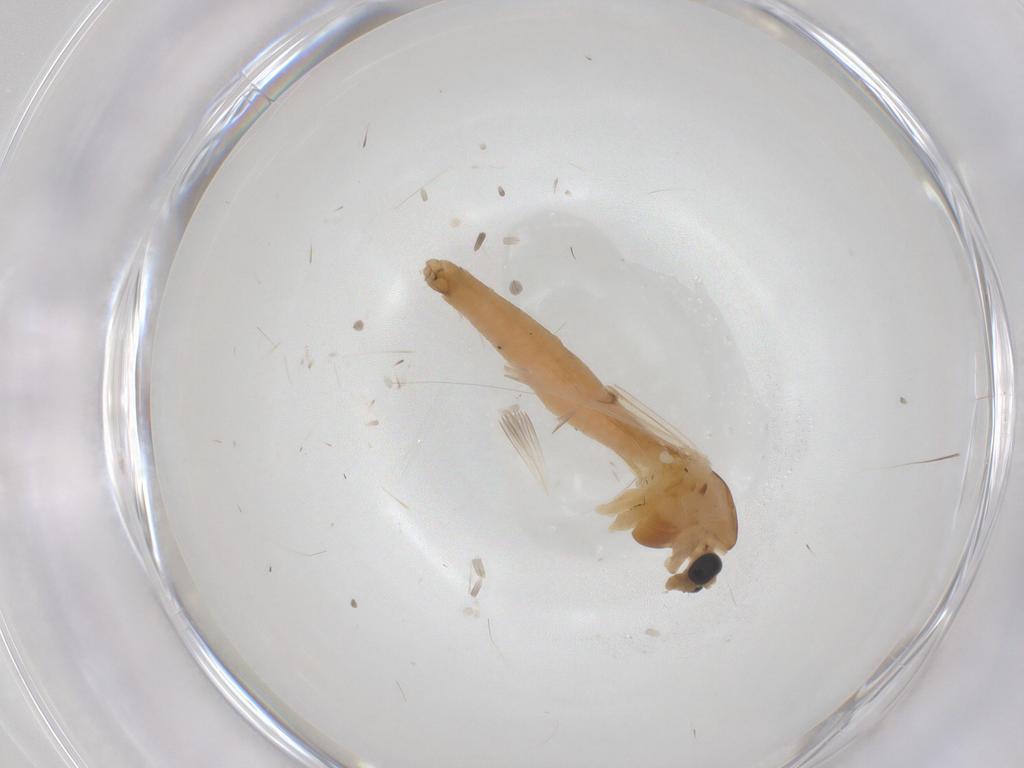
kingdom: Animalia
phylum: Arthropoda
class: Insecta
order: Diptera
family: Chironomidae
